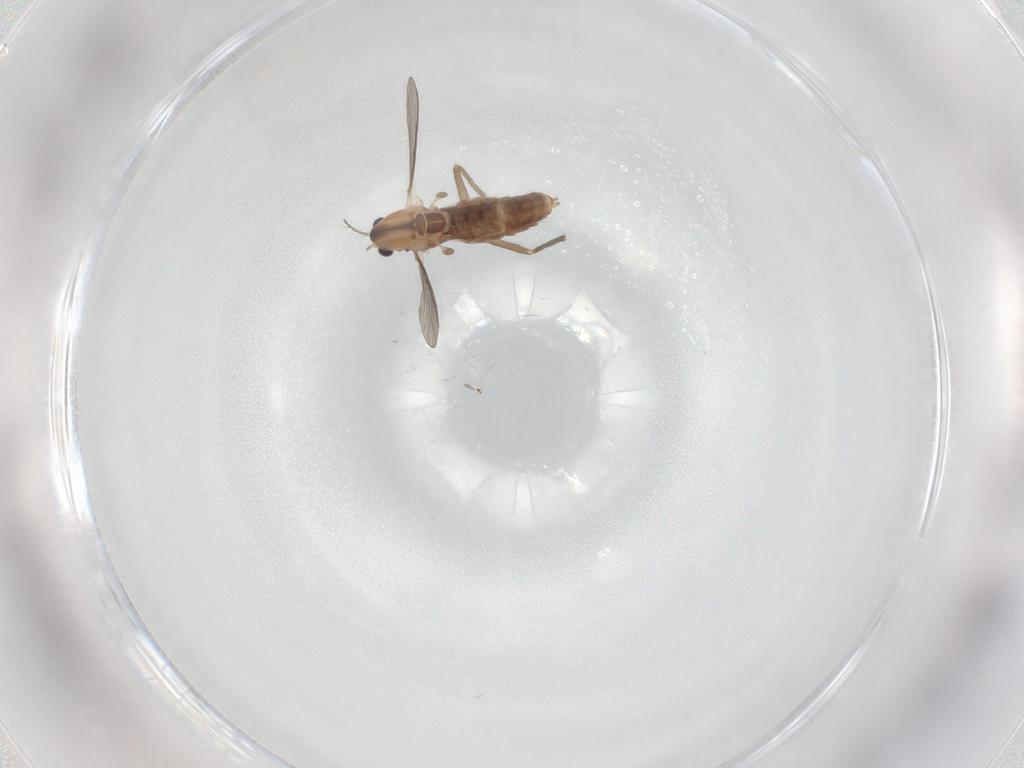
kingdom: Animalia
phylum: Arthropoda
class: Insecta
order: Diptera
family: Chironomidae
